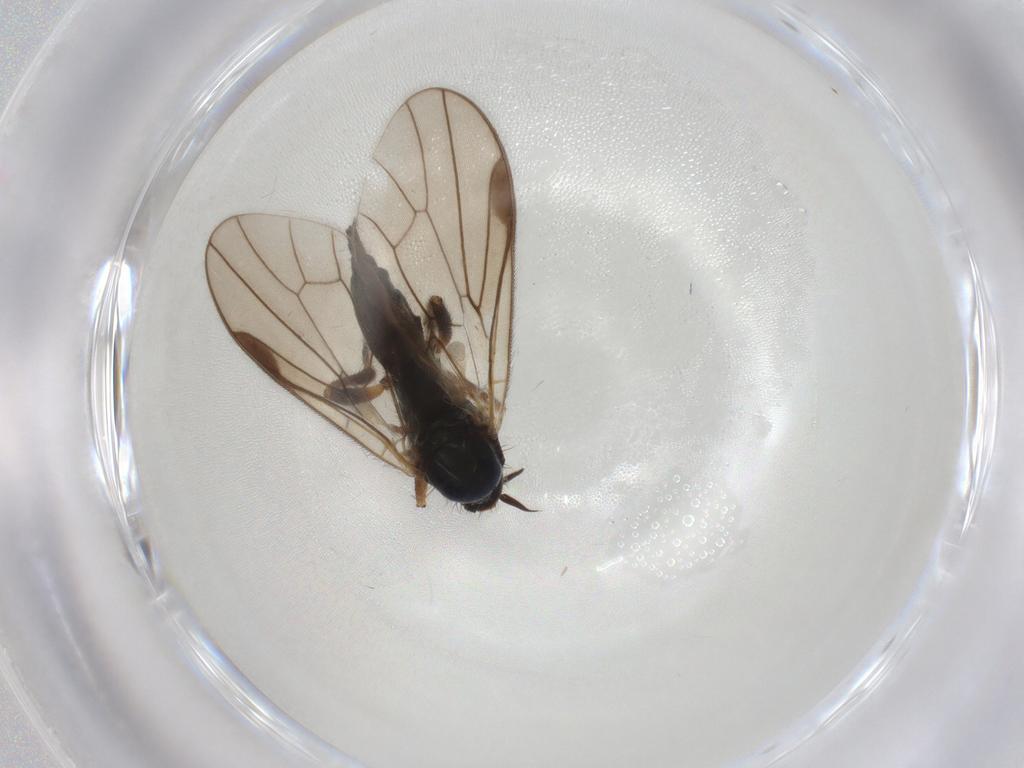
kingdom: Animalia
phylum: Arthropoda
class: Insecta
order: Diptera
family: Hybotidae
